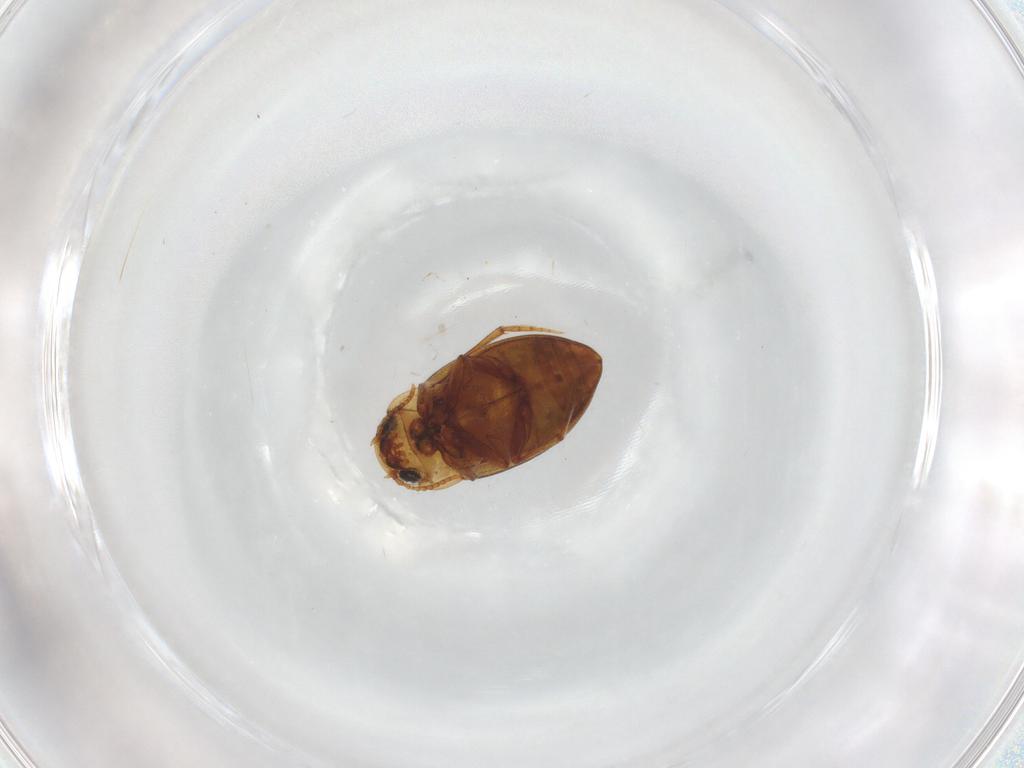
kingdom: Animalia
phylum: Arthropoda
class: Insecta
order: Coleoptera
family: Dytiscidae
